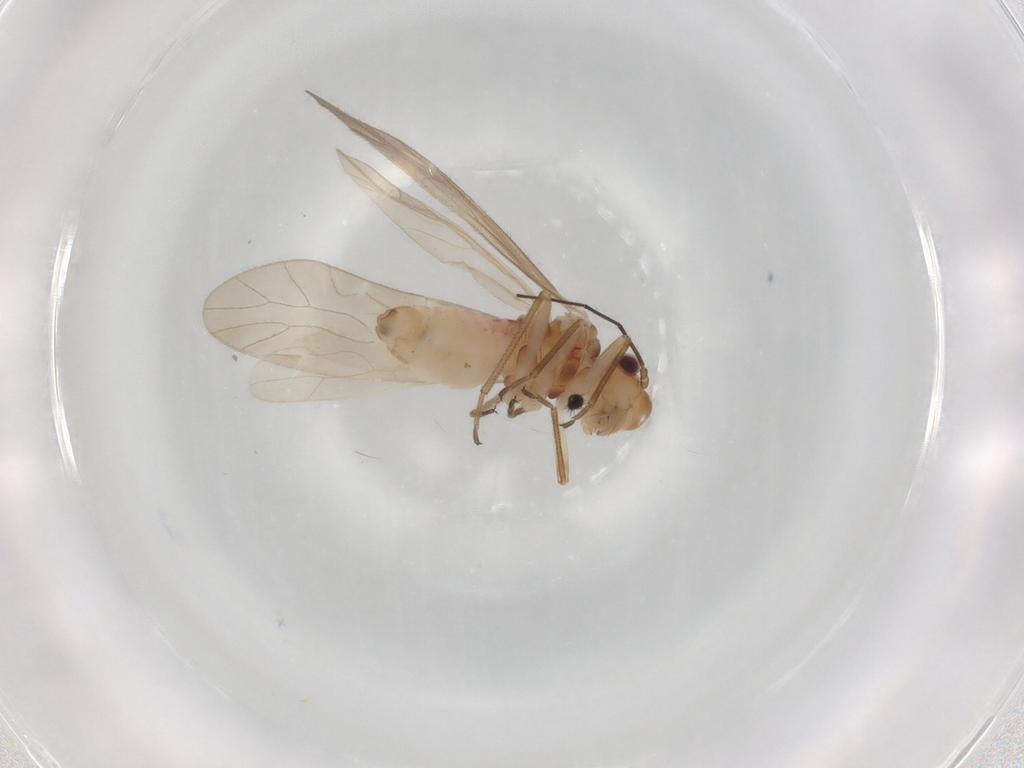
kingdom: Animalia
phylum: Arthropoda
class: Insecta
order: Psocodea
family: Caeciliusidae
